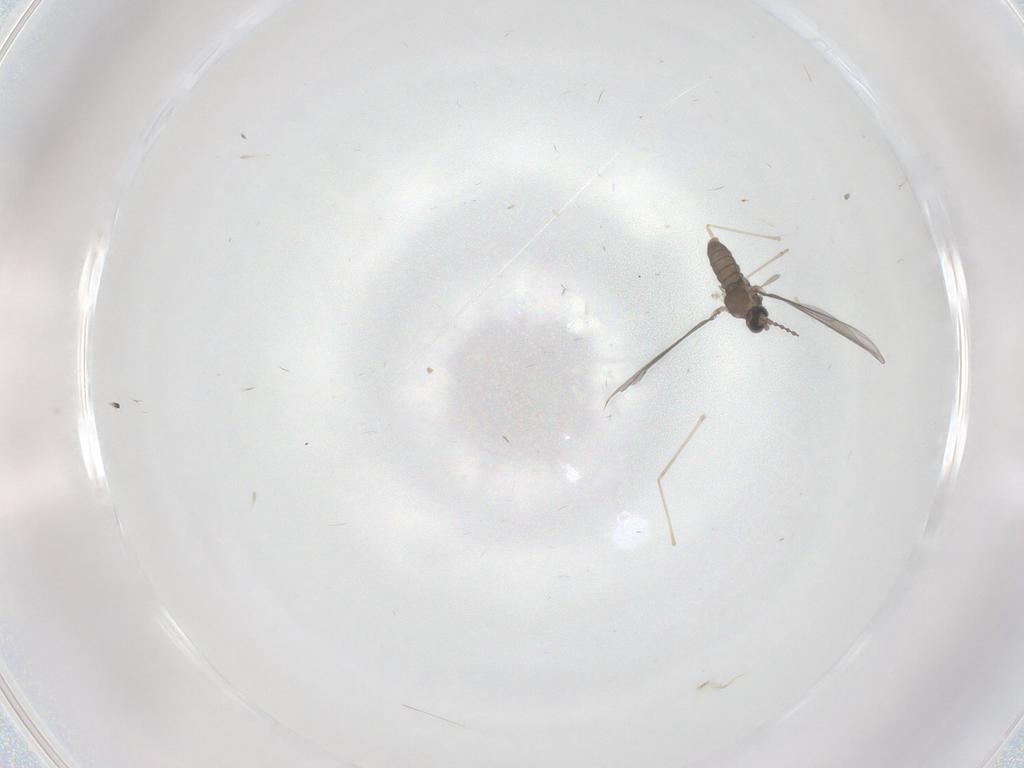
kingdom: Animalia
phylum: Arthropoda
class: Insecta
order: Diptera
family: Cecidomyiidae
